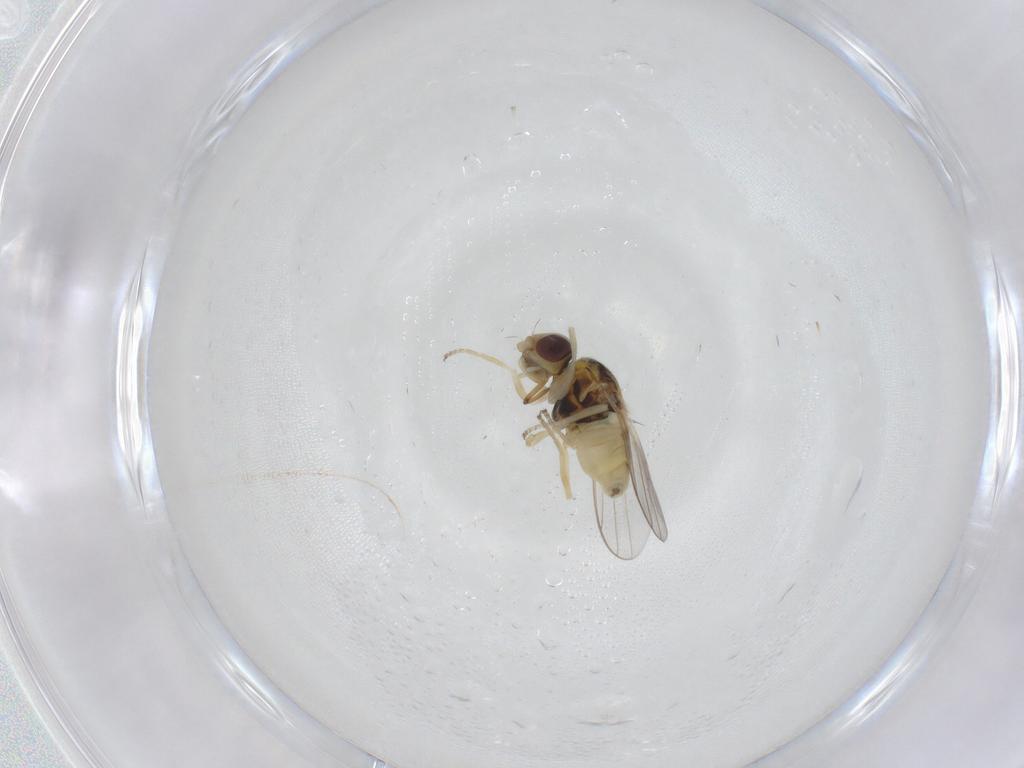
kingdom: Animalia
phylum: Arthropoda
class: Insecta
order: Diptera
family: Chloropidae
